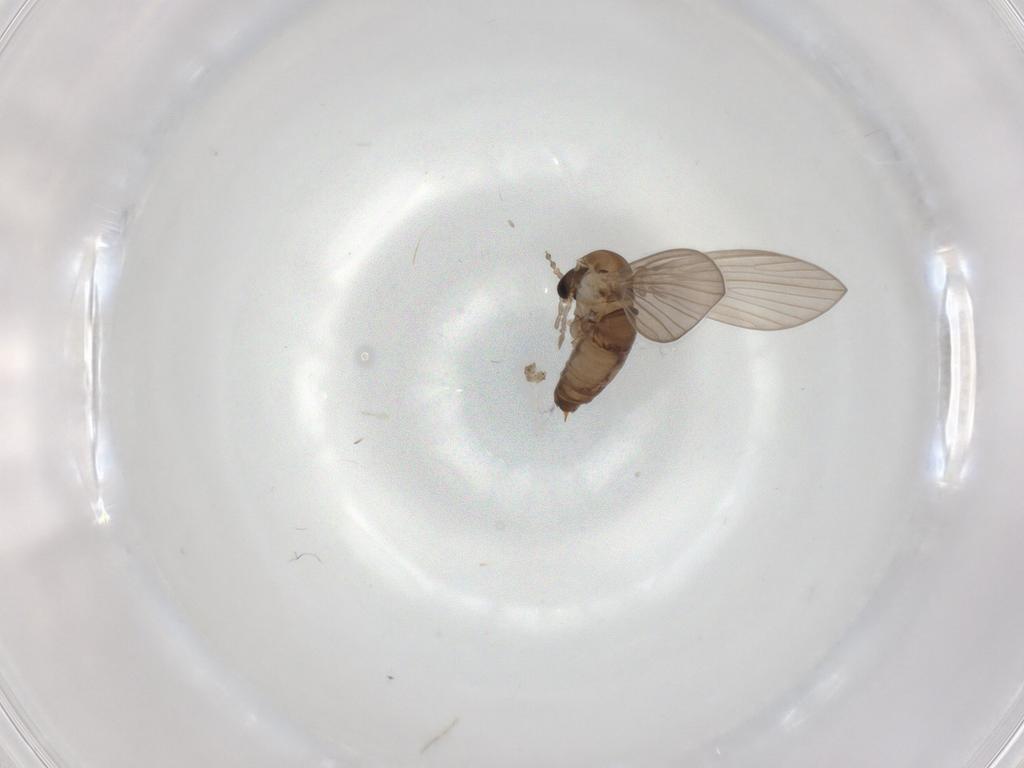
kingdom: Animalia
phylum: Arthropoda
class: Insecta
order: Diptera
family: Psychodidae
